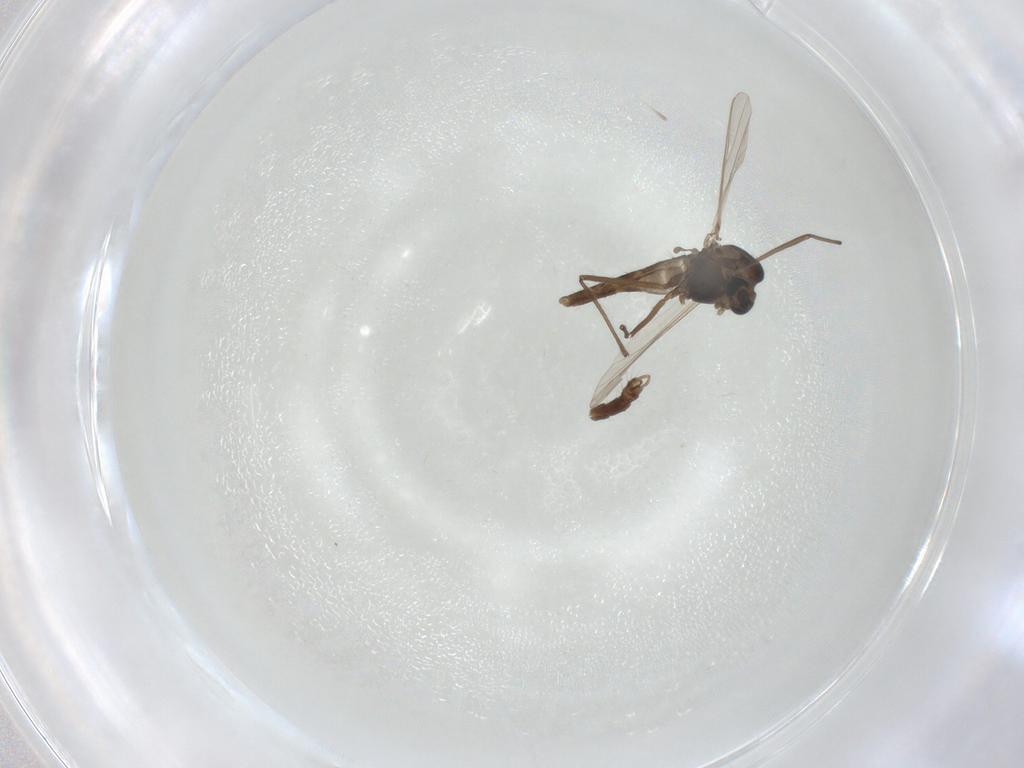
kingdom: Animalia
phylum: Arthropoda
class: Insecta
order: Diptera
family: Chironomidae
